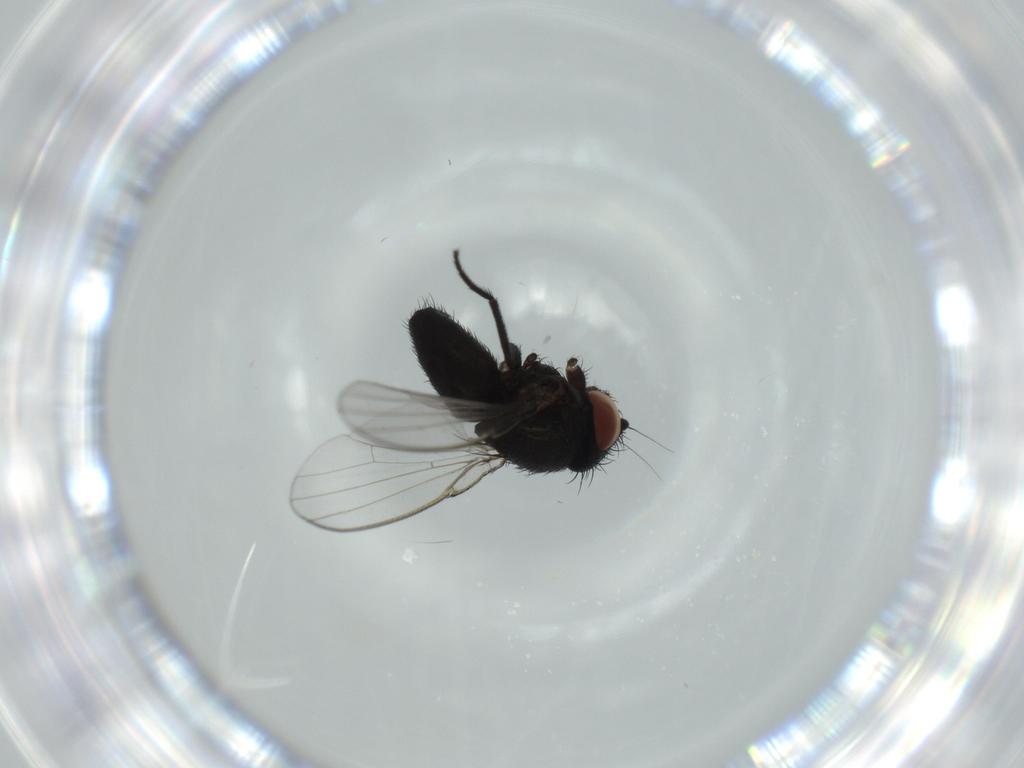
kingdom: Animalia
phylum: Arthropoda
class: Insecta
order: Diptera
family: Milichiidae
